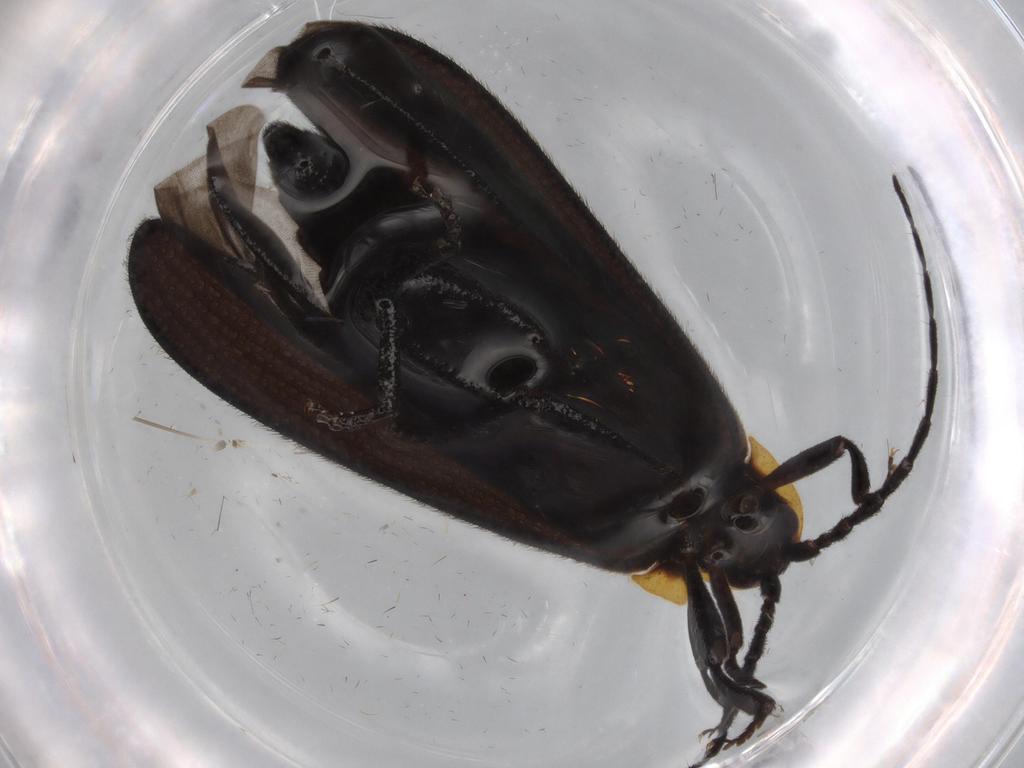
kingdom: Animalia
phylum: Arthropoda
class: Insecta
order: Coleoptera
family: Lycidae
